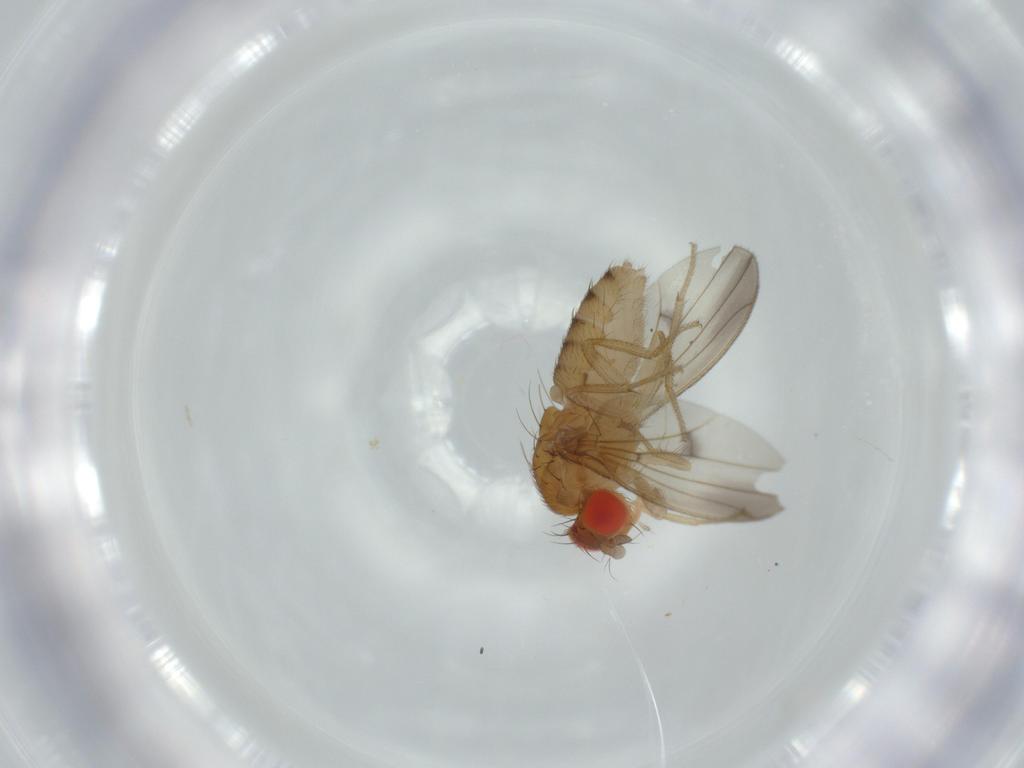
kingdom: Animalia
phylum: Arthropoda
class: Insecta
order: Diptera
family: Drosophilidae
